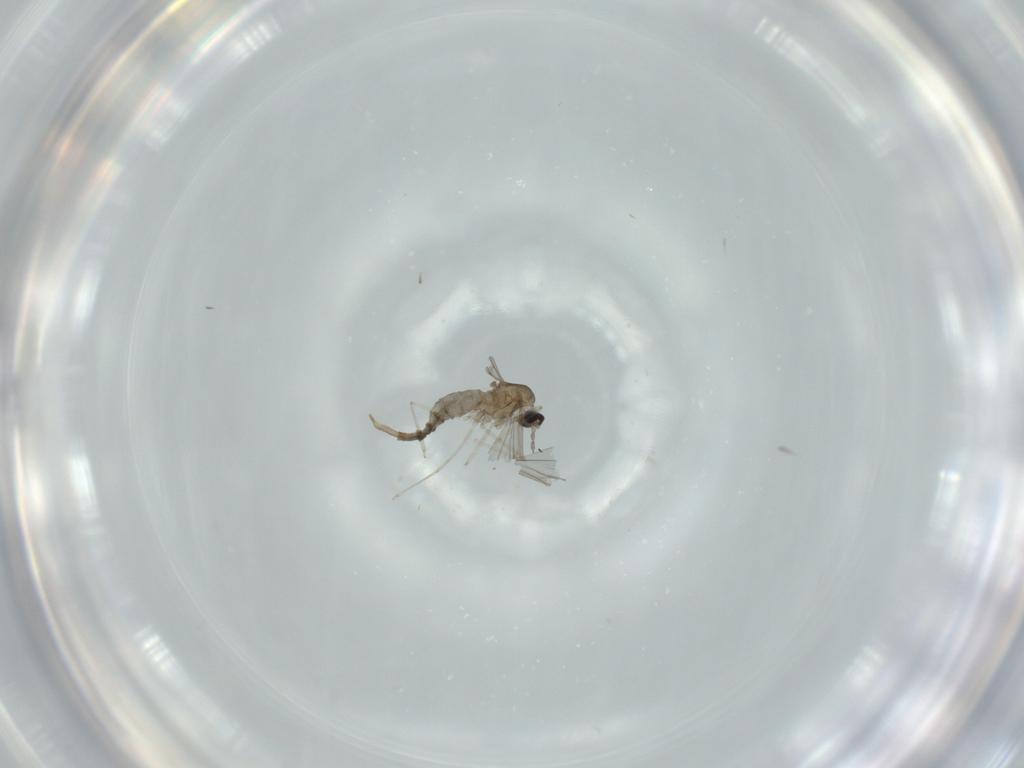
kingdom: Animalia
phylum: Arthropoda
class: Insecta
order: Diptera
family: Cecidomyiidae
